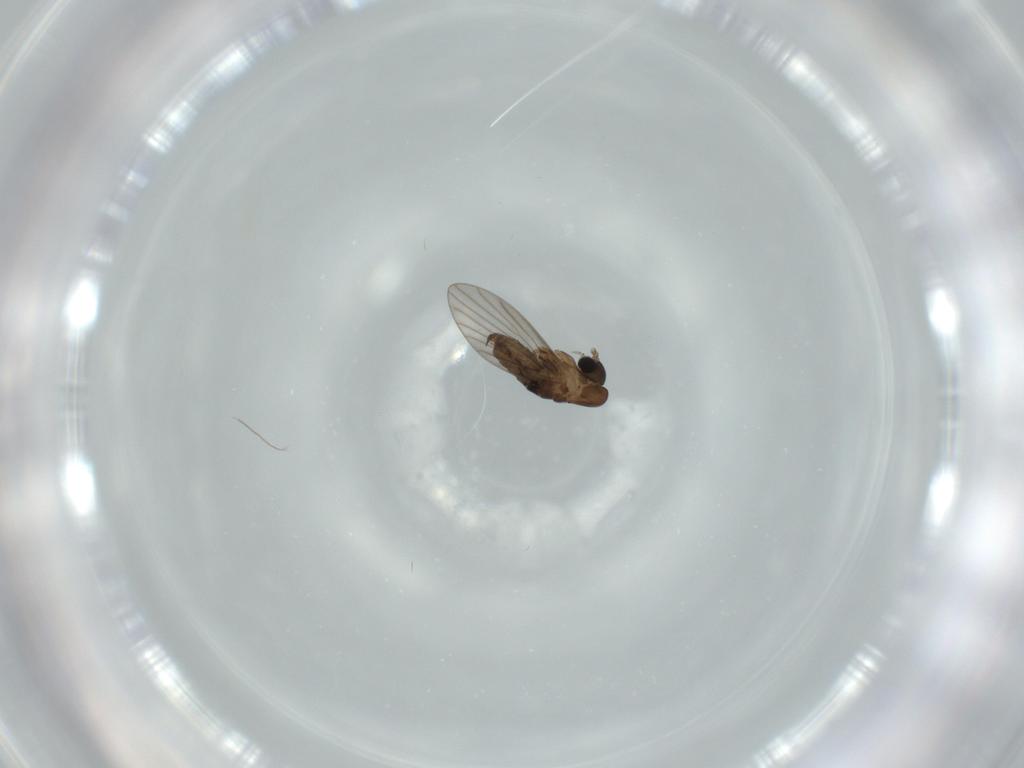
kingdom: Animalia
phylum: Arthropoda
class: Insecta
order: Diptera
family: Psychodidae
